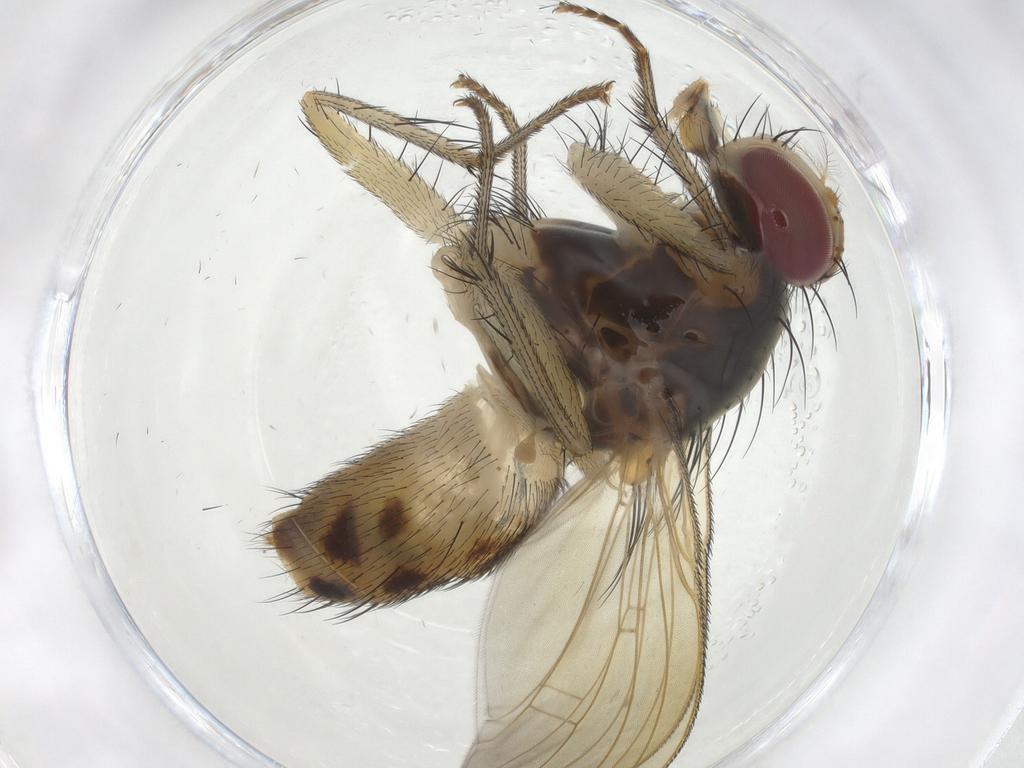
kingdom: Animalia
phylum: Arthropoda
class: Insecta
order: Diptera
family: Muscidae
